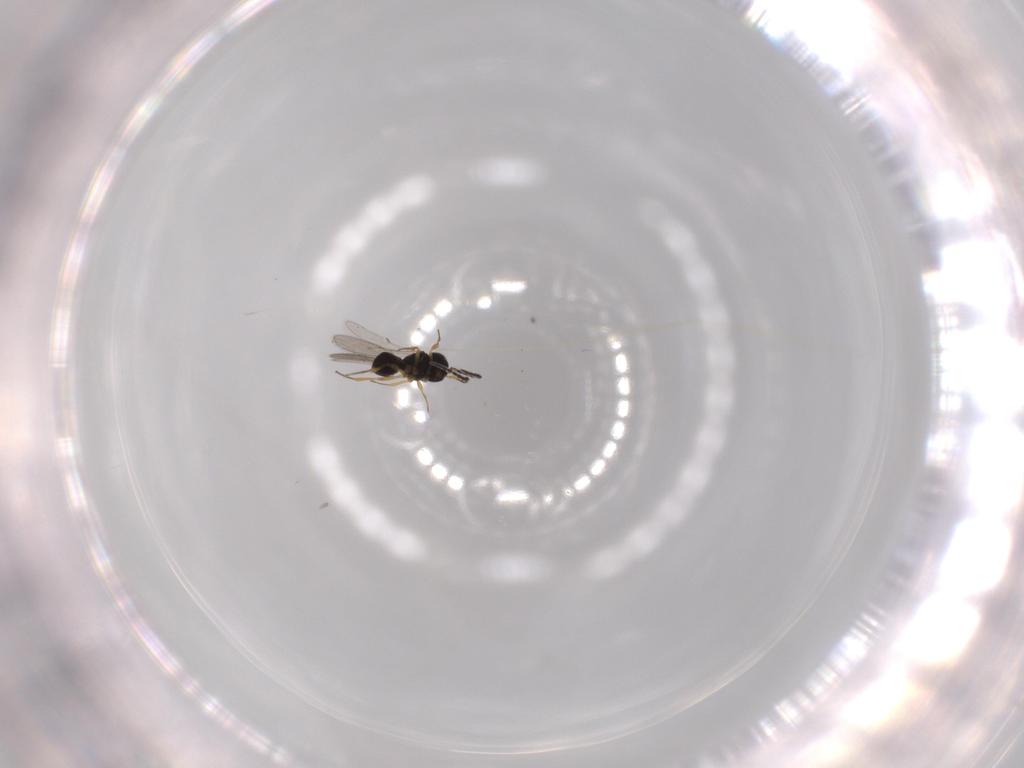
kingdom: Animalia
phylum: Arthropoda
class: Insecta
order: Hymenoptera
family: Scelionidae
